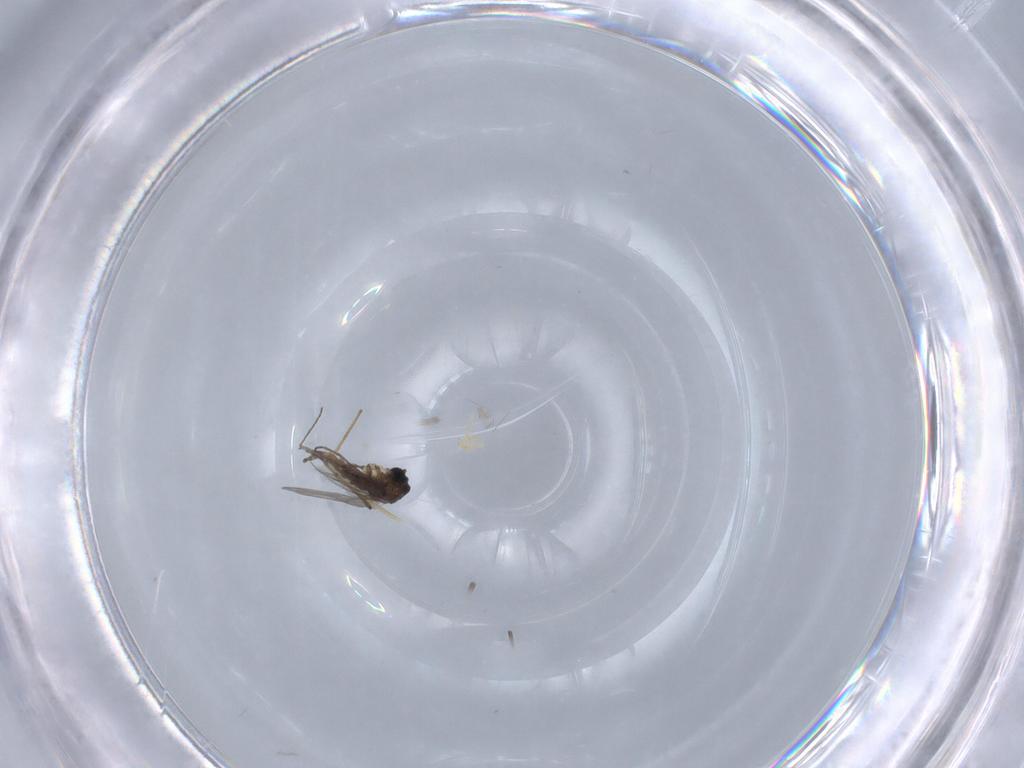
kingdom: Animalia
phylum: Arthropoda
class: Insecta
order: Diptera
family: Sciaridae
